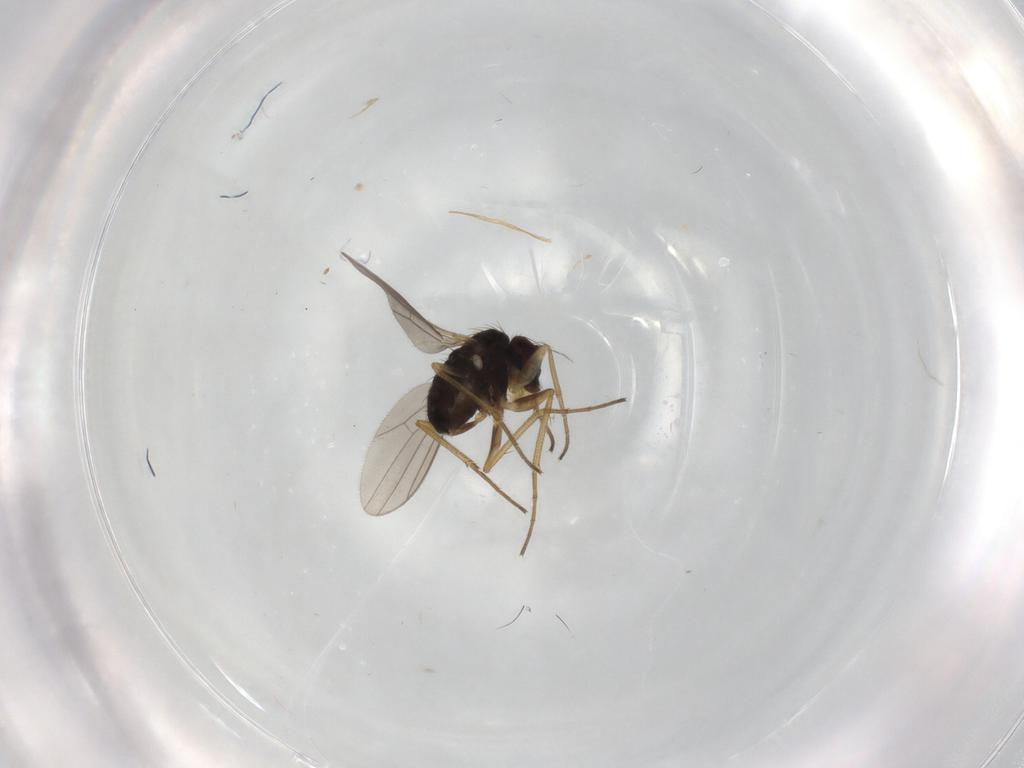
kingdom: Animalia
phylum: Arthropoda
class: Insecta
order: Diptera
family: Dolichopodidae
